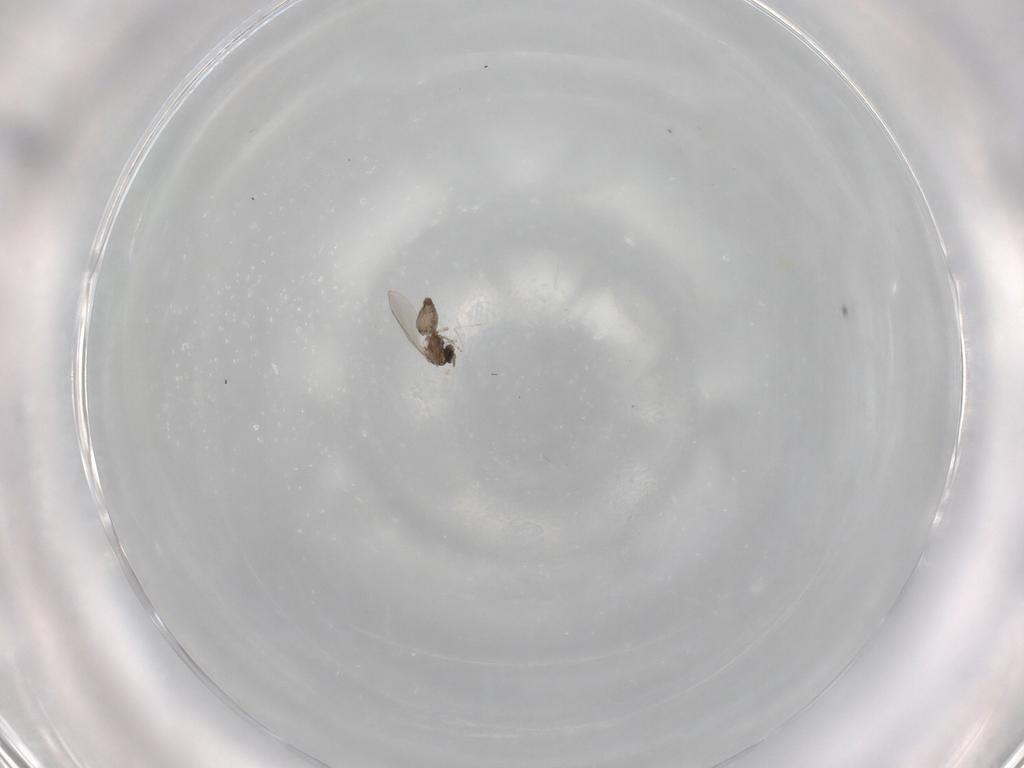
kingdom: Animalia
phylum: Arthropoda
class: Insecta
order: Diptera
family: Cecidomyiidae
